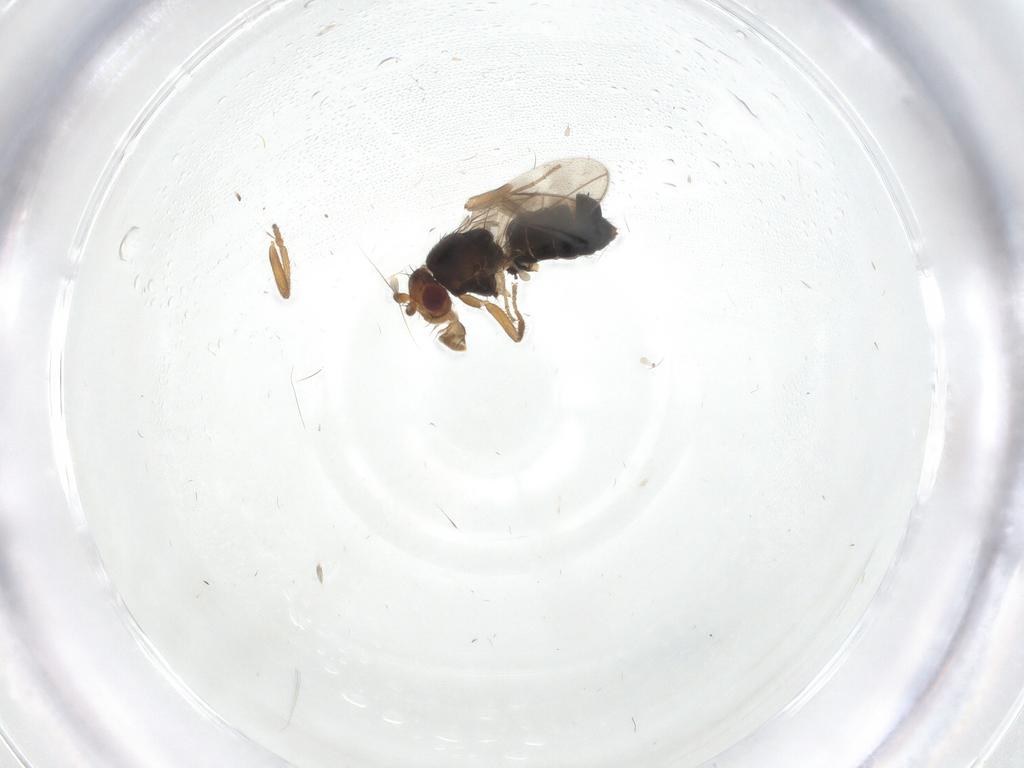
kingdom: Animalia
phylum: Arthropoda
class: Insecta
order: Diptera
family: Sphaeroceridae
